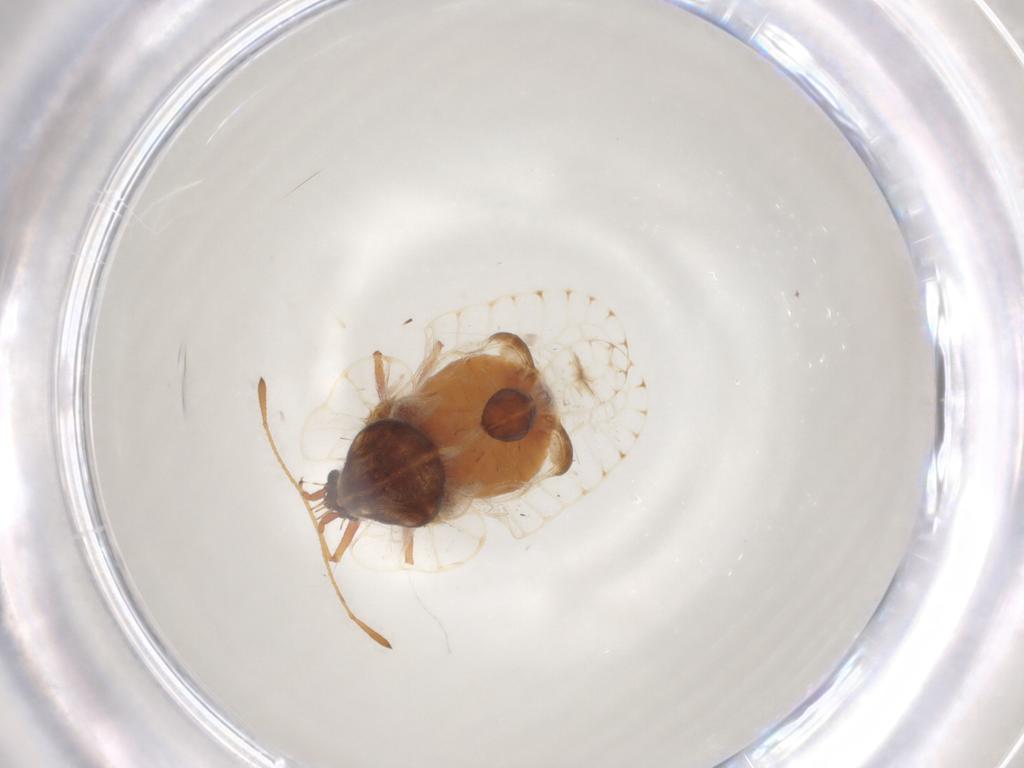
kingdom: Animalia
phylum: Arthropoda
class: Insecta
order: Hemiptera
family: Tingidae
